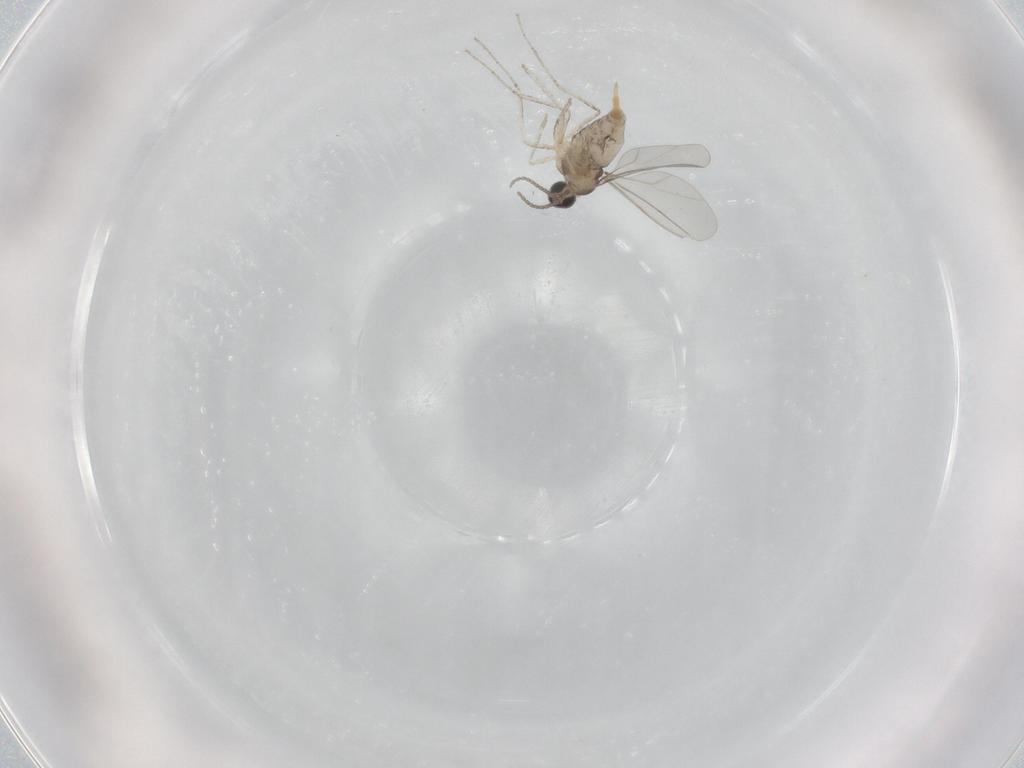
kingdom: Animalia
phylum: Arthropoda
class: Insecta
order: Diptera
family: Cecidomyiidae
